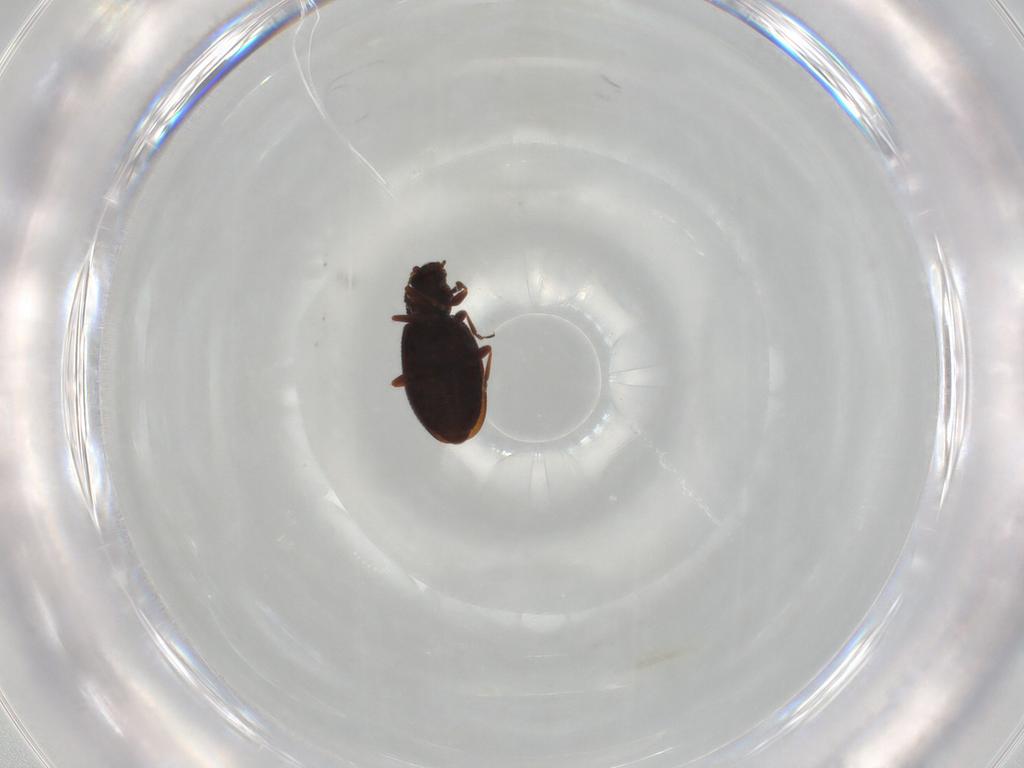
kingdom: Animalia
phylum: Arthropoda
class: Insecta
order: Coleoptera
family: Latridiidae
